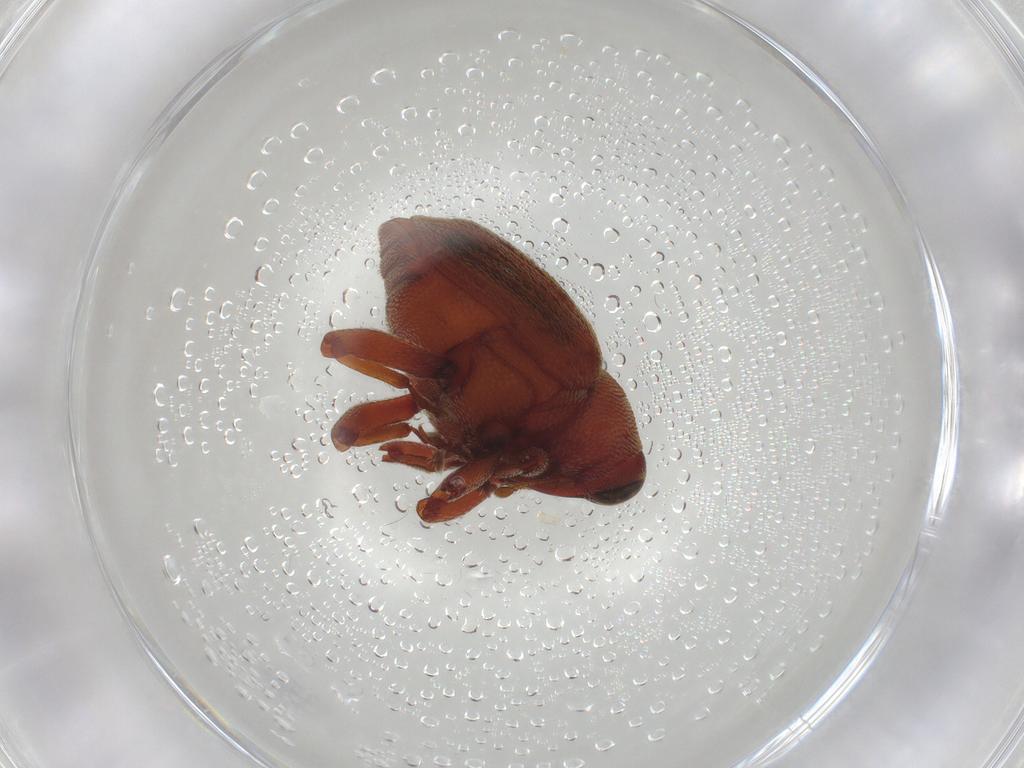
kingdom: Animalia
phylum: Arthropoda
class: Insecta
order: Coleoptera
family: Curculionidae
